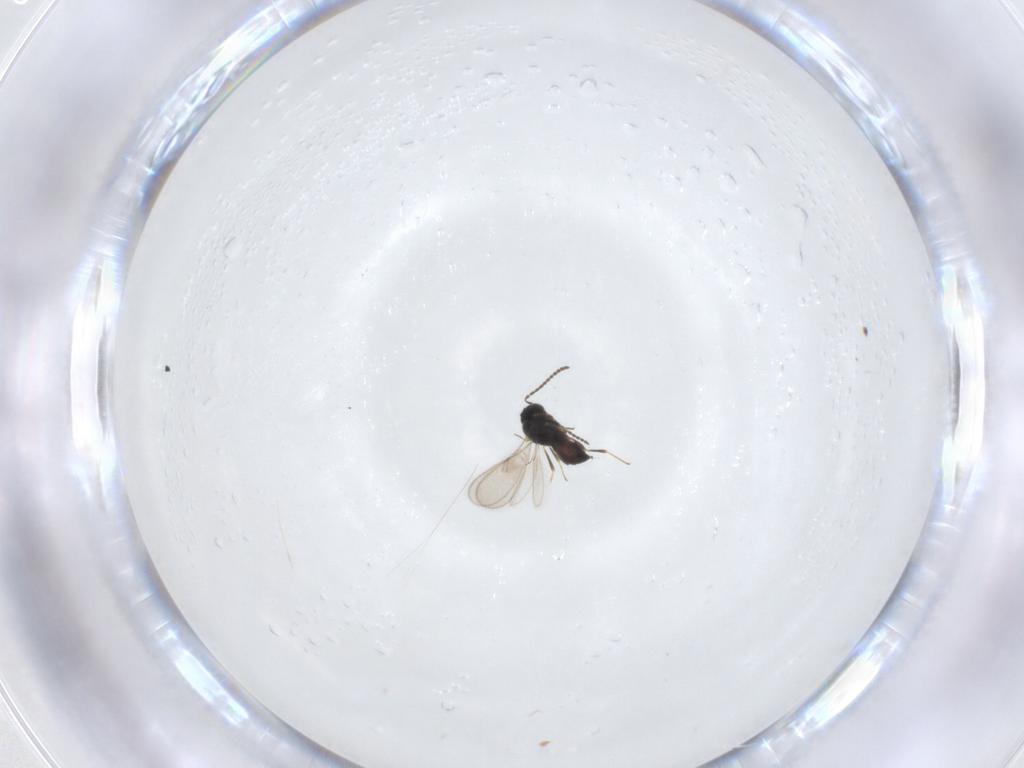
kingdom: Animalia
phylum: Arthropoda
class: Insecta
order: Hymenoptera
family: Scelionidae
